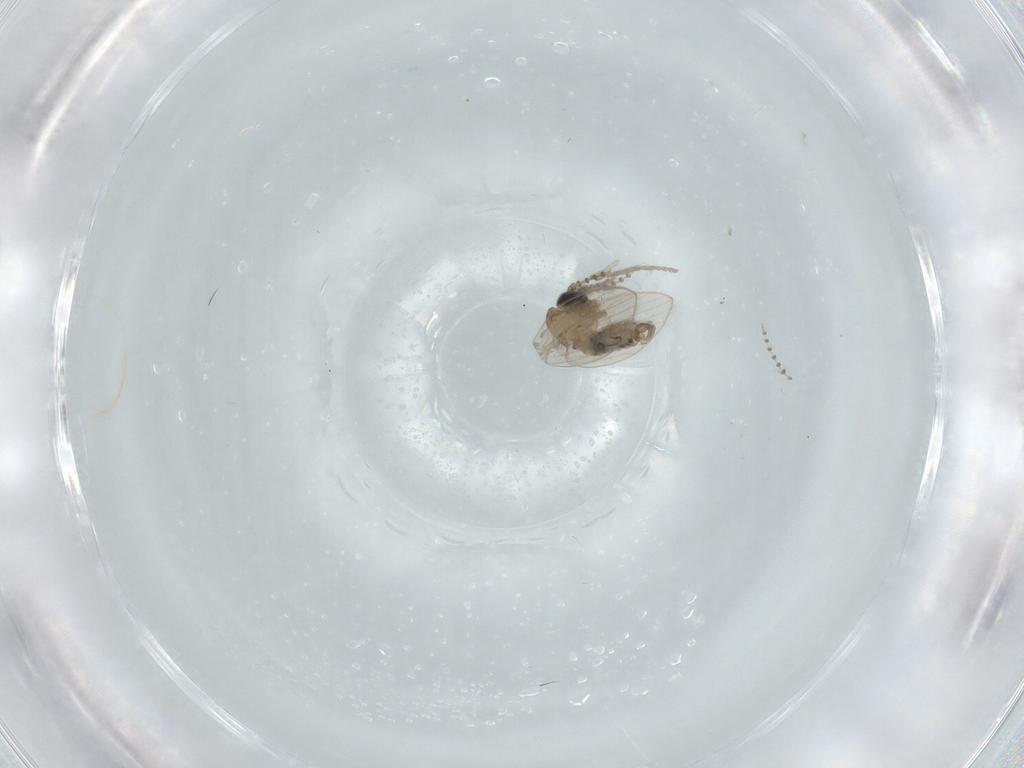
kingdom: Animalia
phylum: Arthropoda
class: Insecta
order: Diptera
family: Psychodidae
